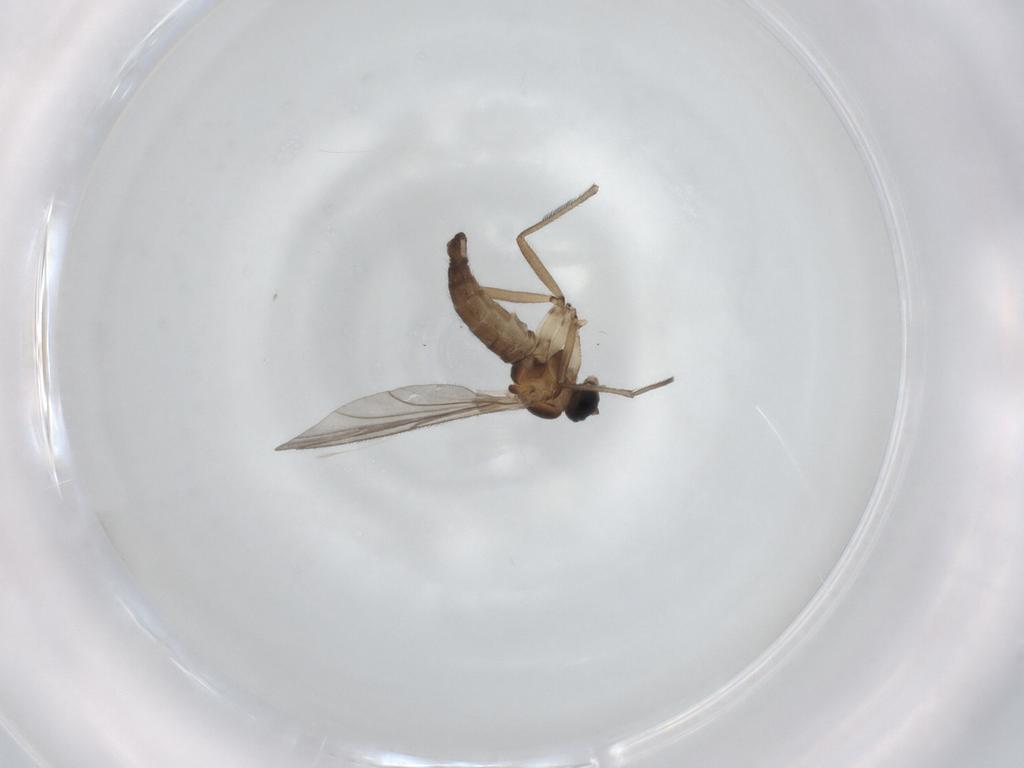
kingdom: Animalia
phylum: Arthropoda
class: Insecta
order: Diptera
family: Sciaridae
